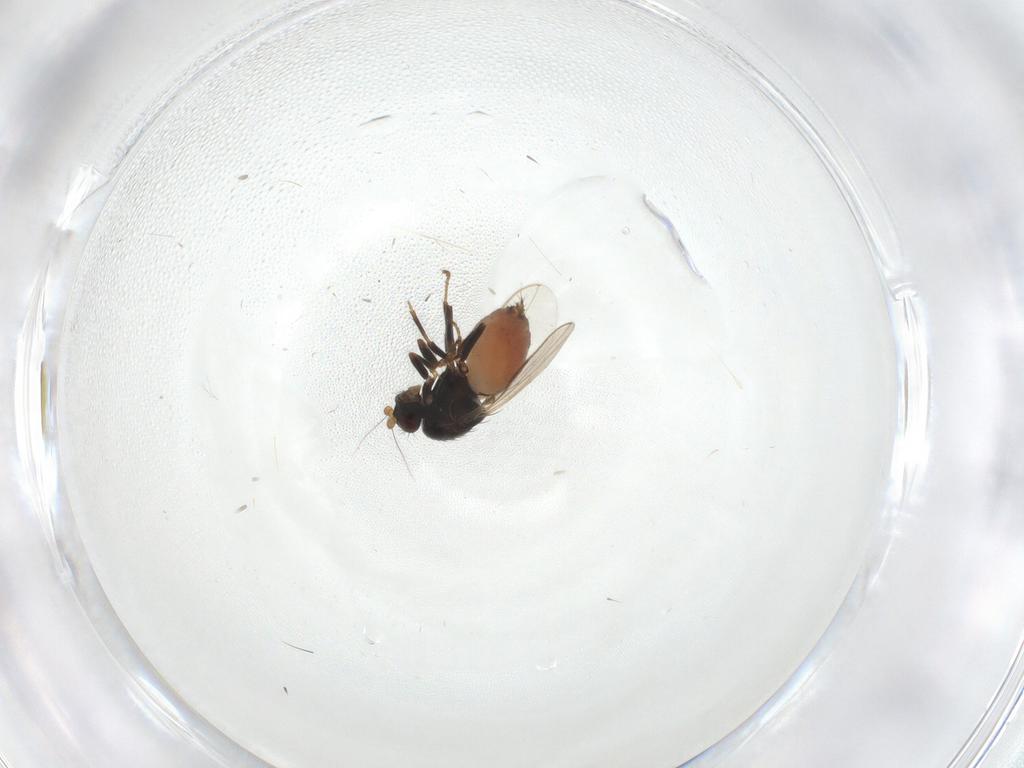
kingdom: Animalia
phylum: Arthropoda
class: Insecta
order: Diptera
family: Sphaeroceridae
